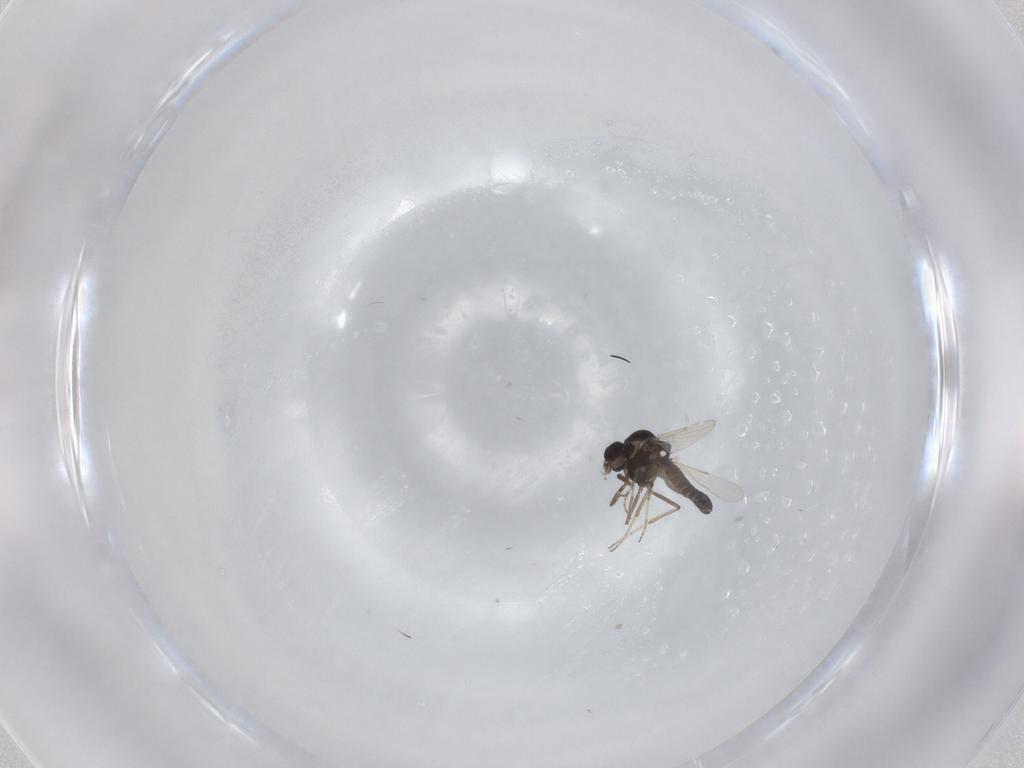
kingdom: Animalia
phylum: Arthropoda
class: Insecta
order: Diptera
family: Ceratopogonidae
